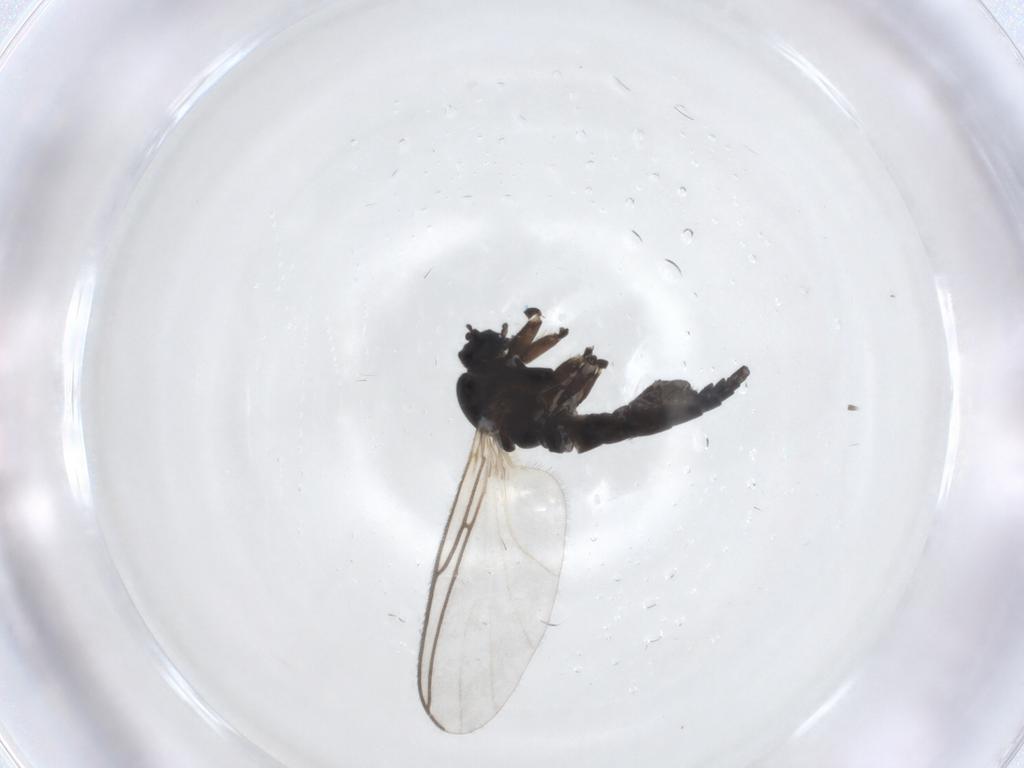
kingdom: Animalia
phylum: Arthropoda
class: Insecta
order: Diptera
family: Sciaridae
